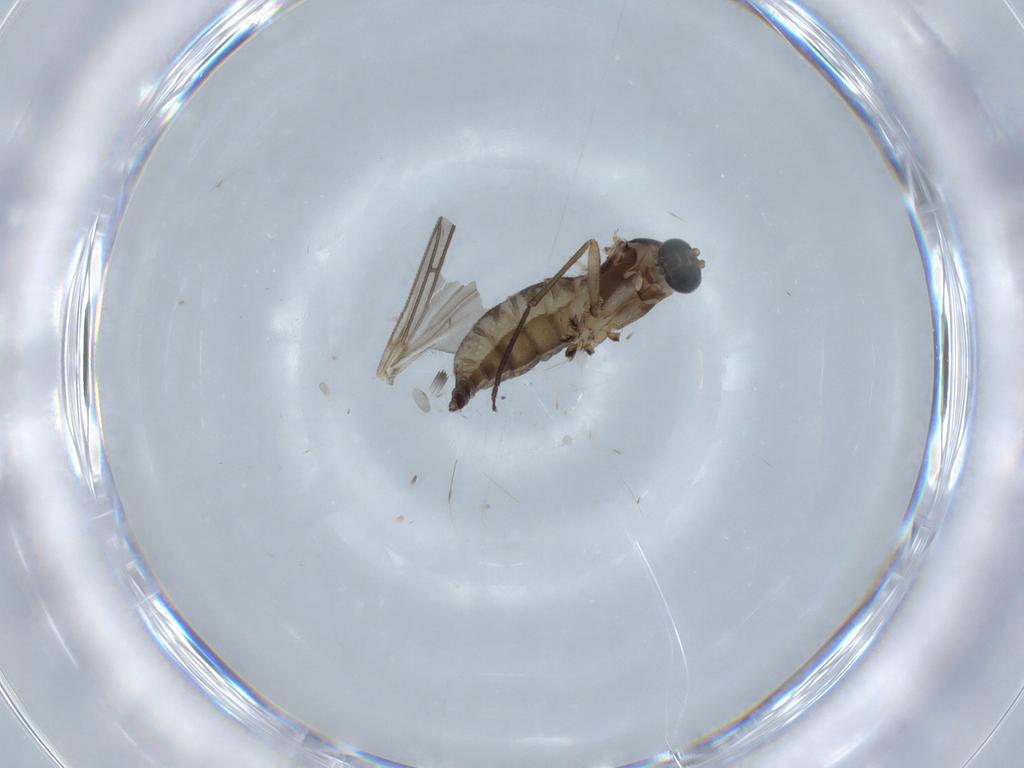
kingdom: Animalia
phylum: Arthropoda
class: Insecta
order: Diptera
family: Sciaridae
